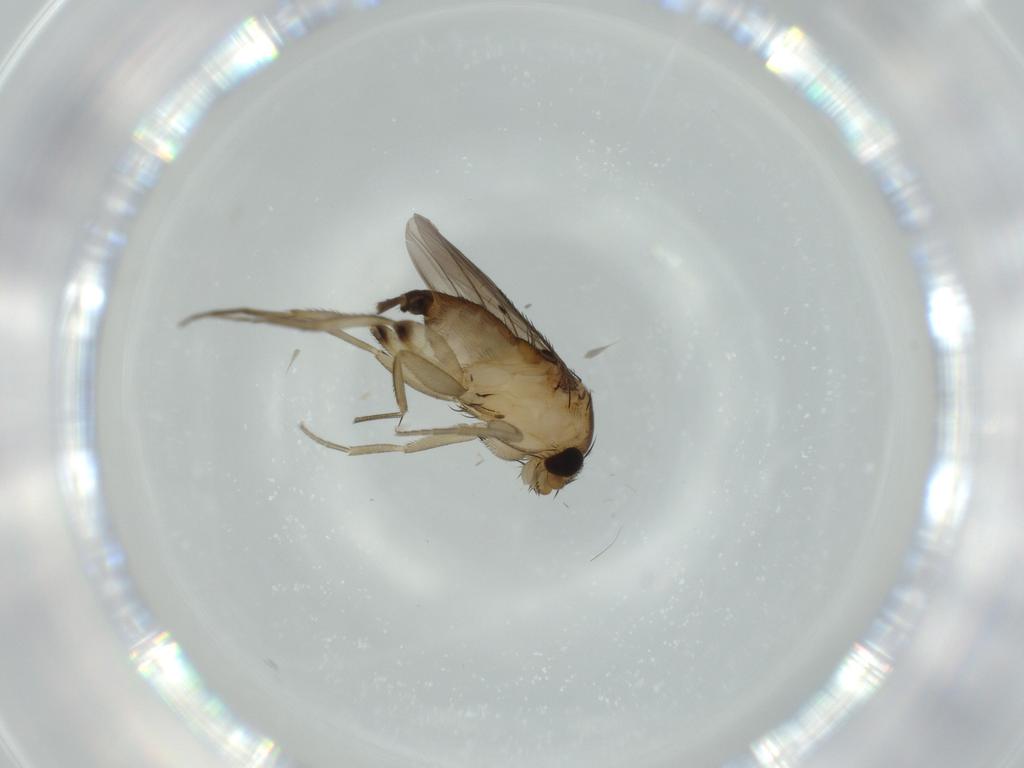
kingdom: Animalia
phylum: Arthropoda
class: Insecta
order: Diptera
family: Phoridae
